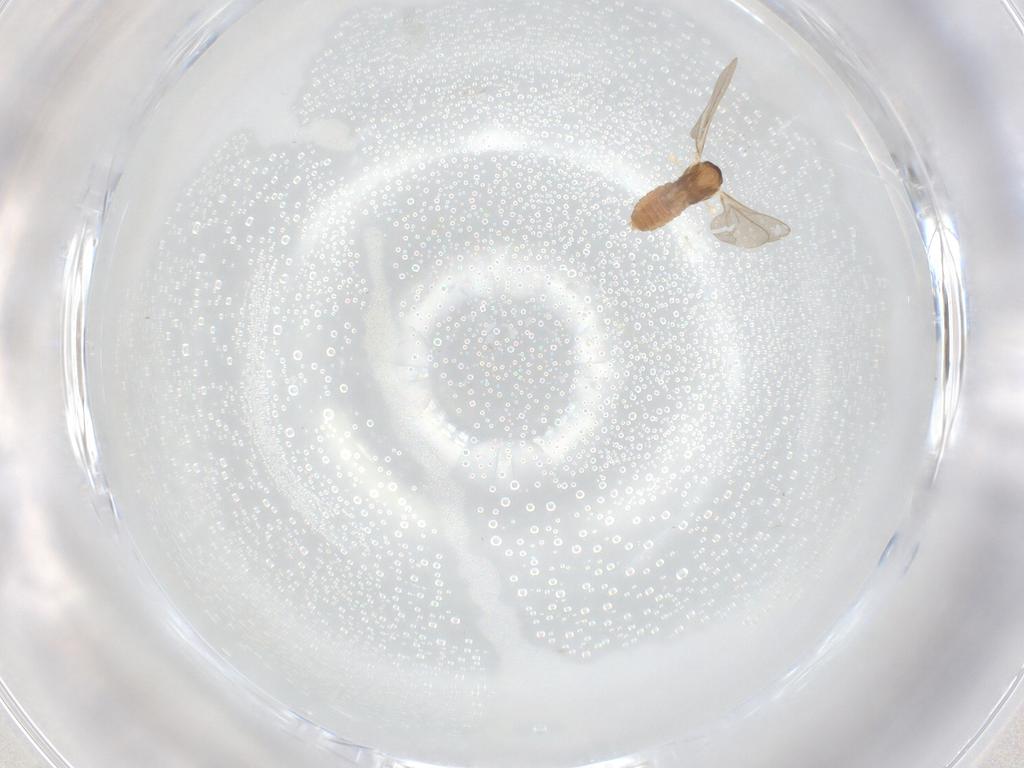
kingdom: Animalia
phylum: Arthropoda
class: Insecta
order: Diptera
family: Cecidomyiidae
